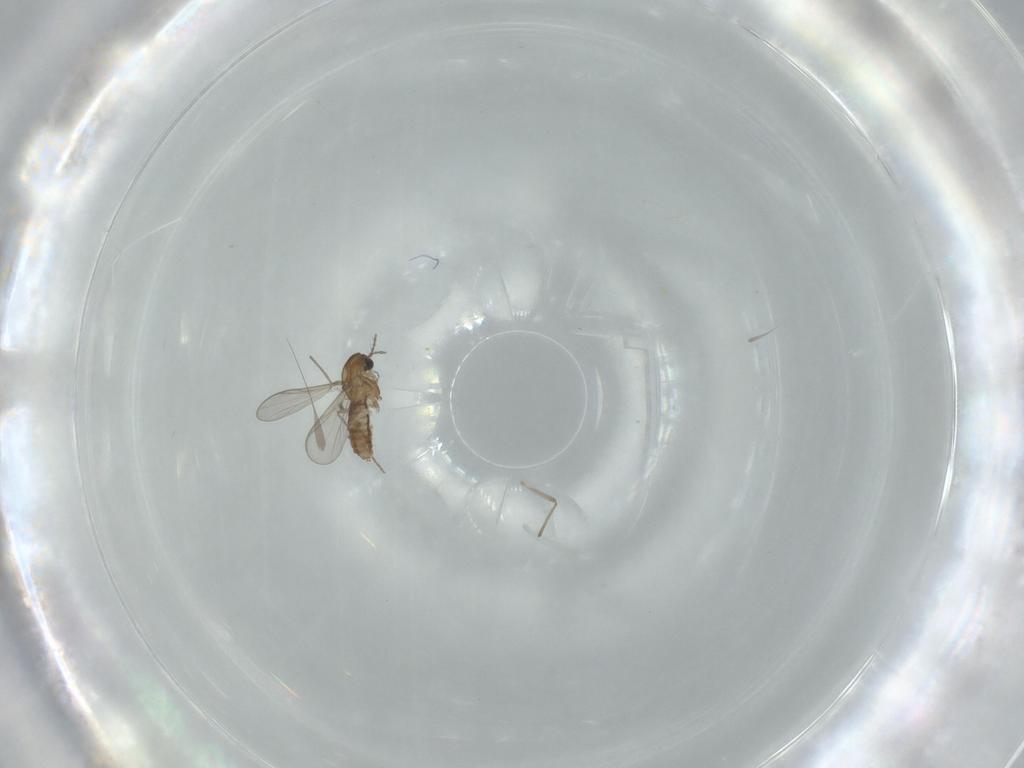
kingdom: Animalia
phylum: Arthropoda
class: Insecta
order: Diptera
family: Chironomidae
